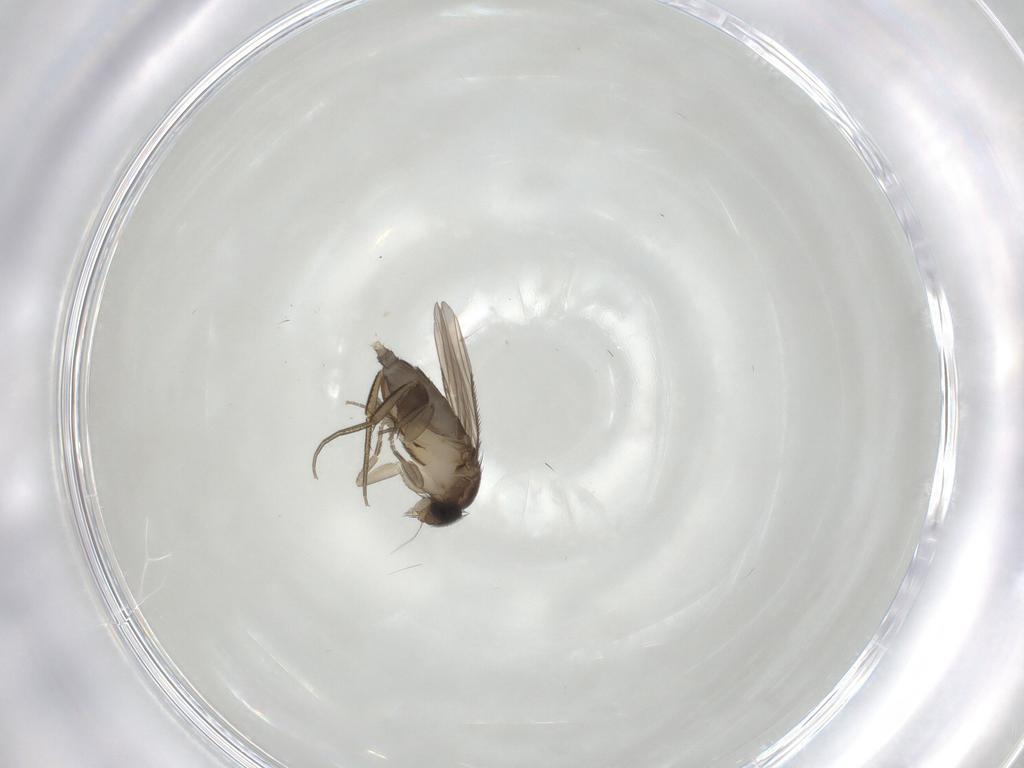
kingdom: Animalia
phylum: Arthropoda
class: Insecta
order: Diptera
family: Phoridae
